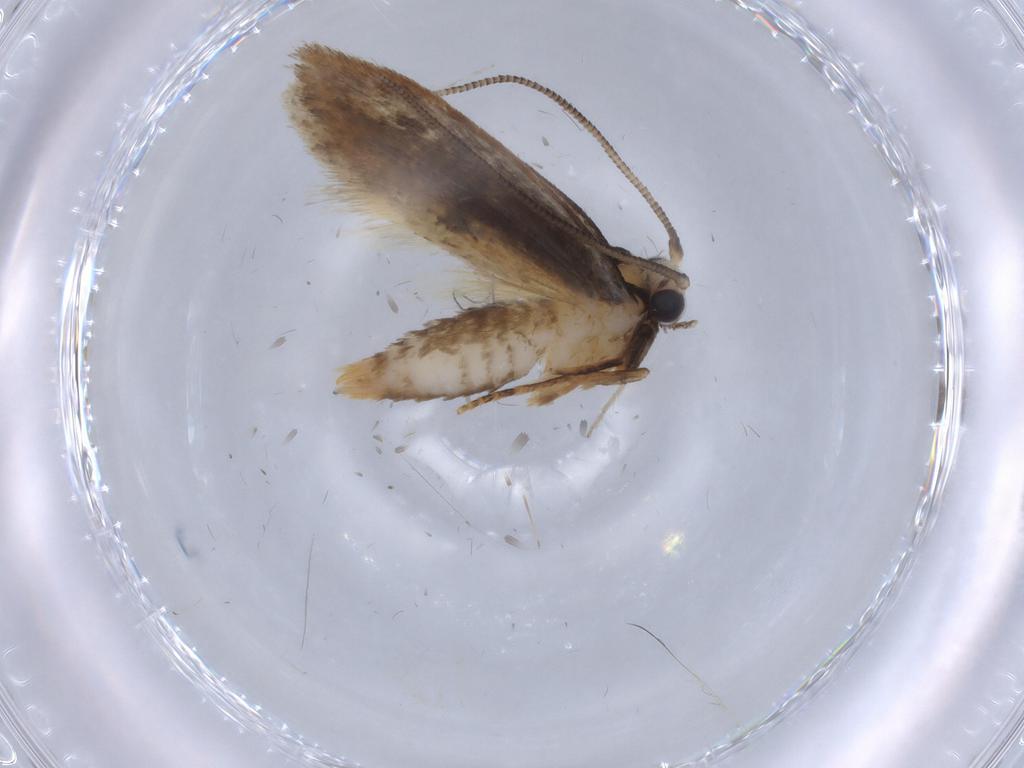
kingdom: Animalia
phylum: Arthropoda
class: Insecta
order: Lepidoptera
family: Tineidae
